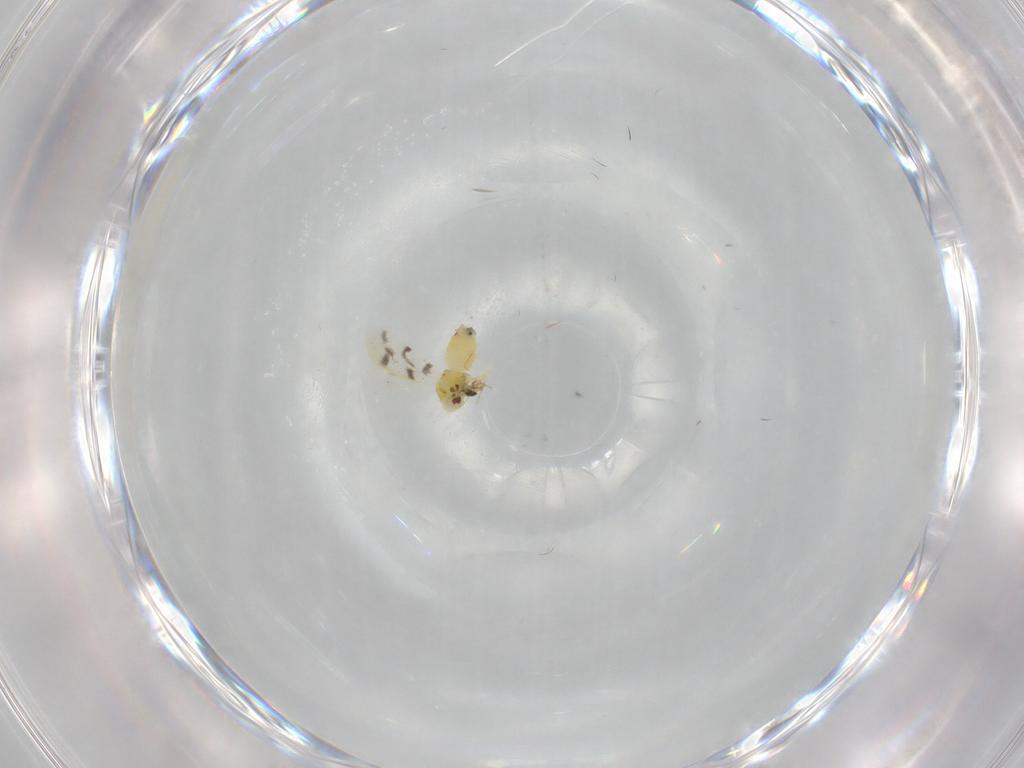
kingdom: Animalia
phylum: Arthropoda
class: Insecta
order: Hemiptera
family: Aleyrodidae
